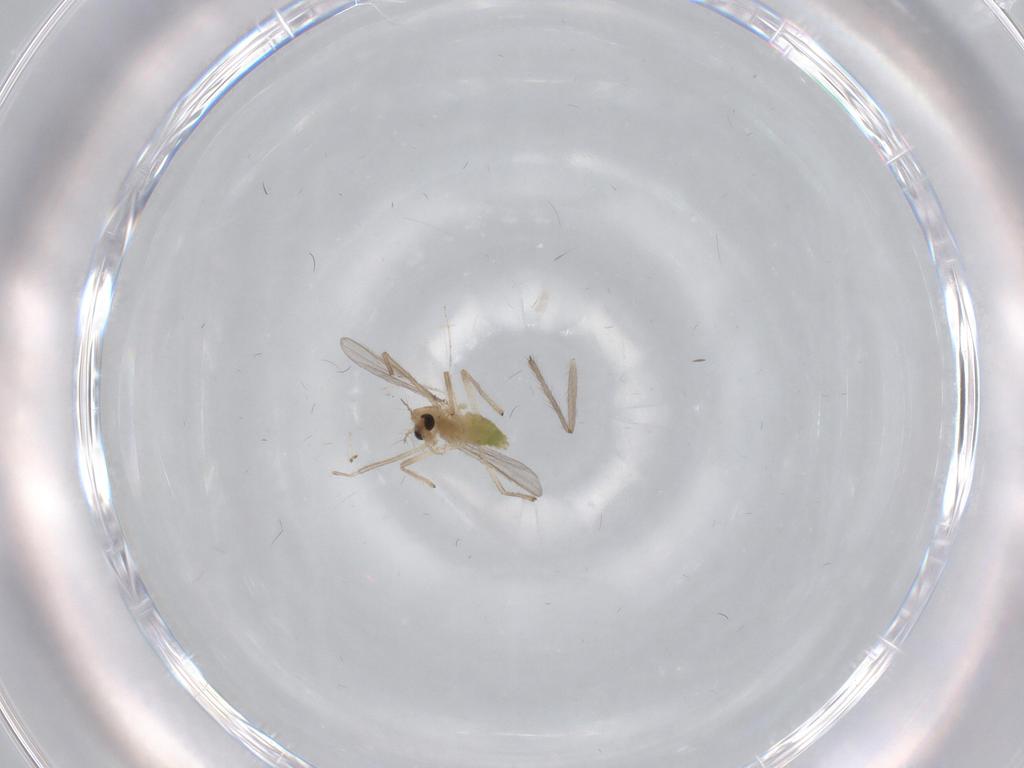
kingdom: Animalia
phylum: Arthropoda
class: Insecta
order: Diptera
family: Chironomidae
